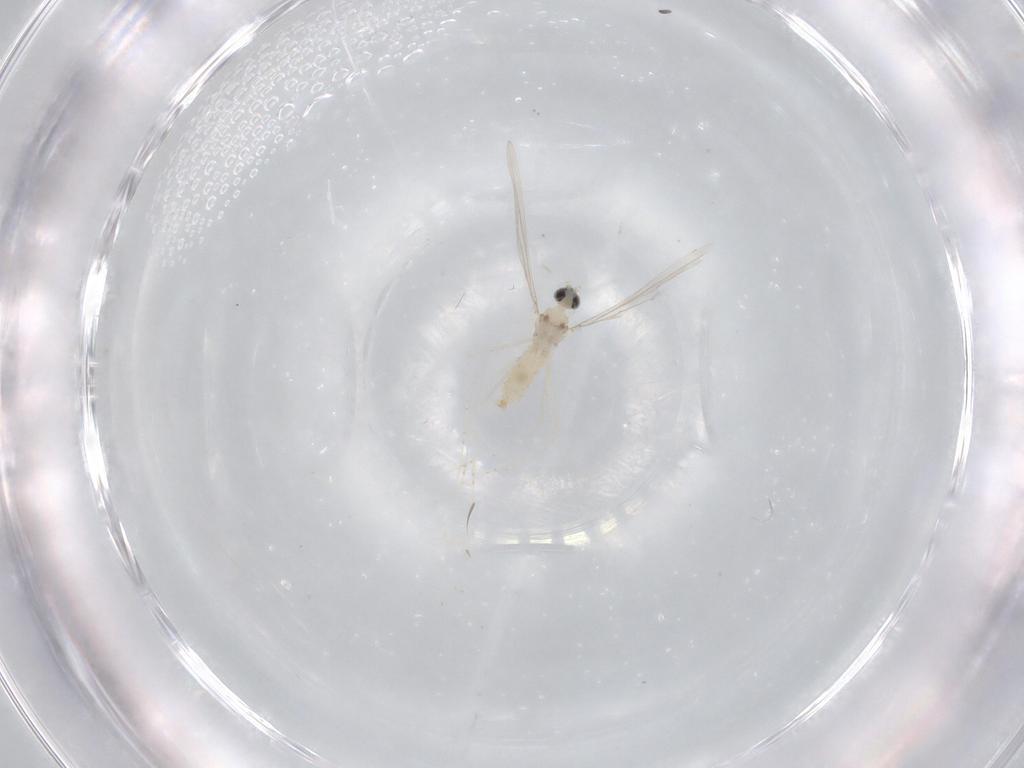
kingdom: Animalia
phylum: Arthropoda
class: Insecta
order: Diptera
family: Cecidomyiidae
